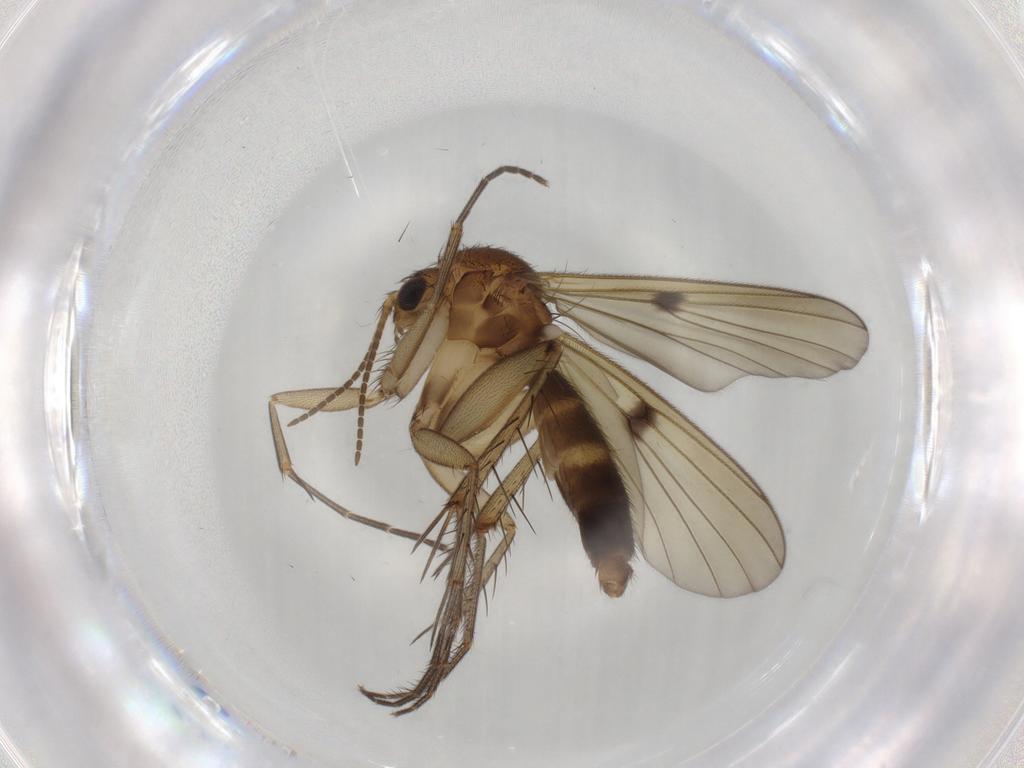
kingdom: Animalia
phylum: Arthropoda
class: Insecta
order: Diptera
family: Mycetophilidae
